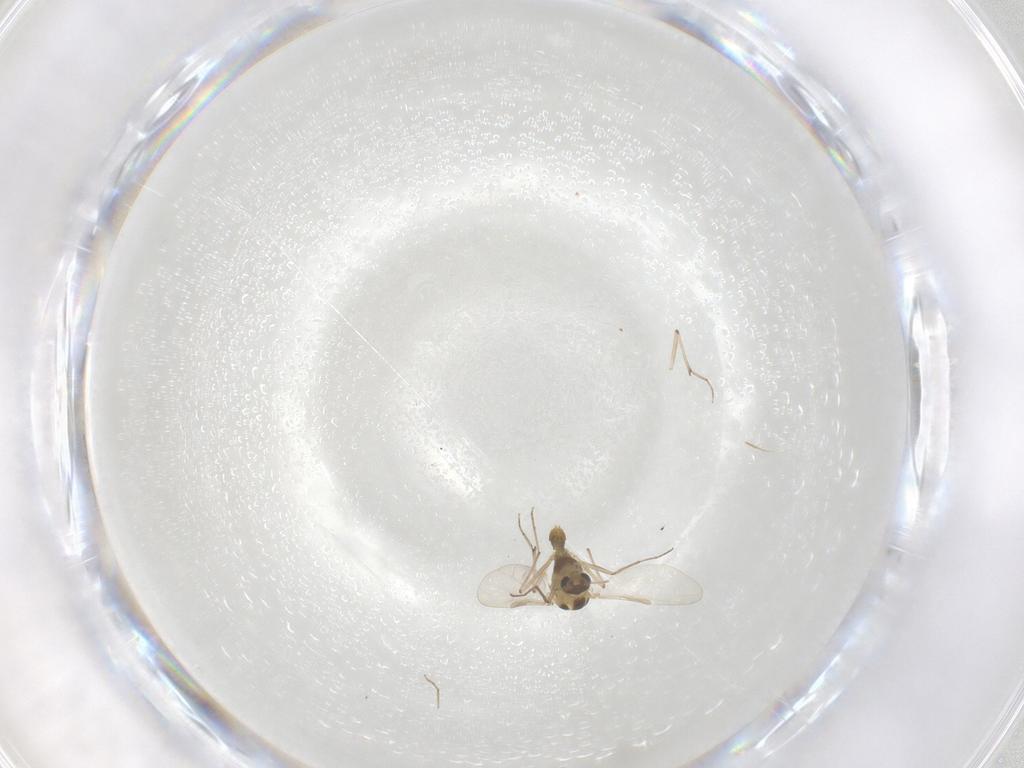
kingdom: Animalia
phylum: Arthropoda
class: Insecta
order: Diptera
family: Chironomidae
